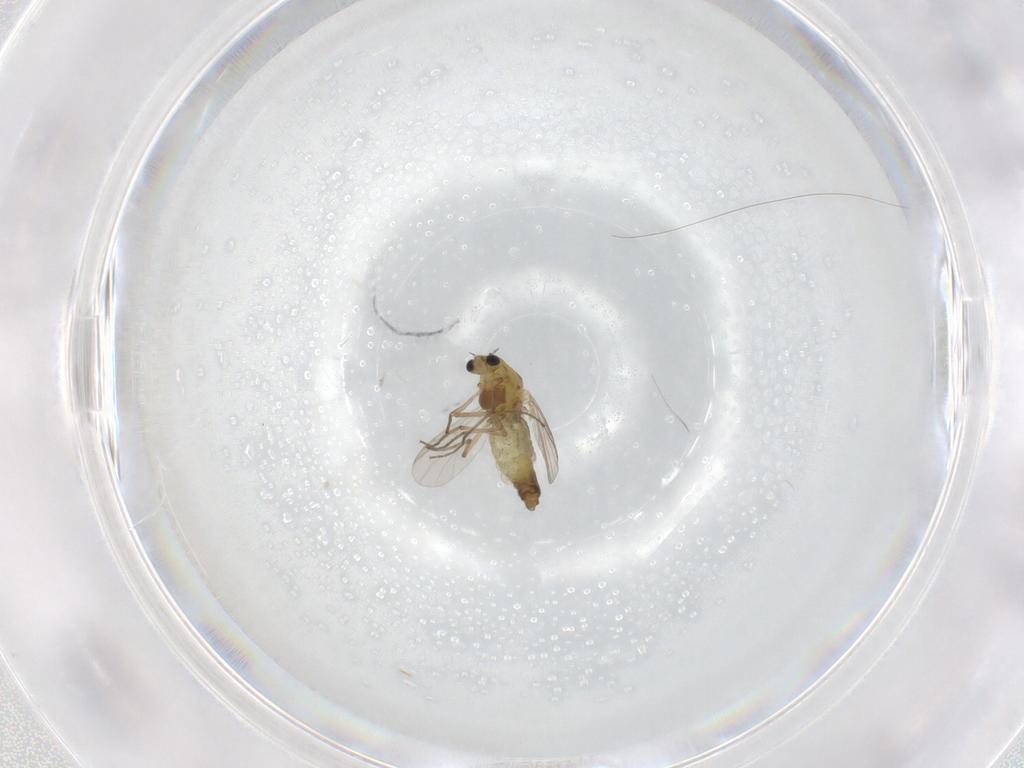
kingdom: Animalia
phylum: Arthropoda
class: Insecta
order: Diptera
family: Chironomidae
